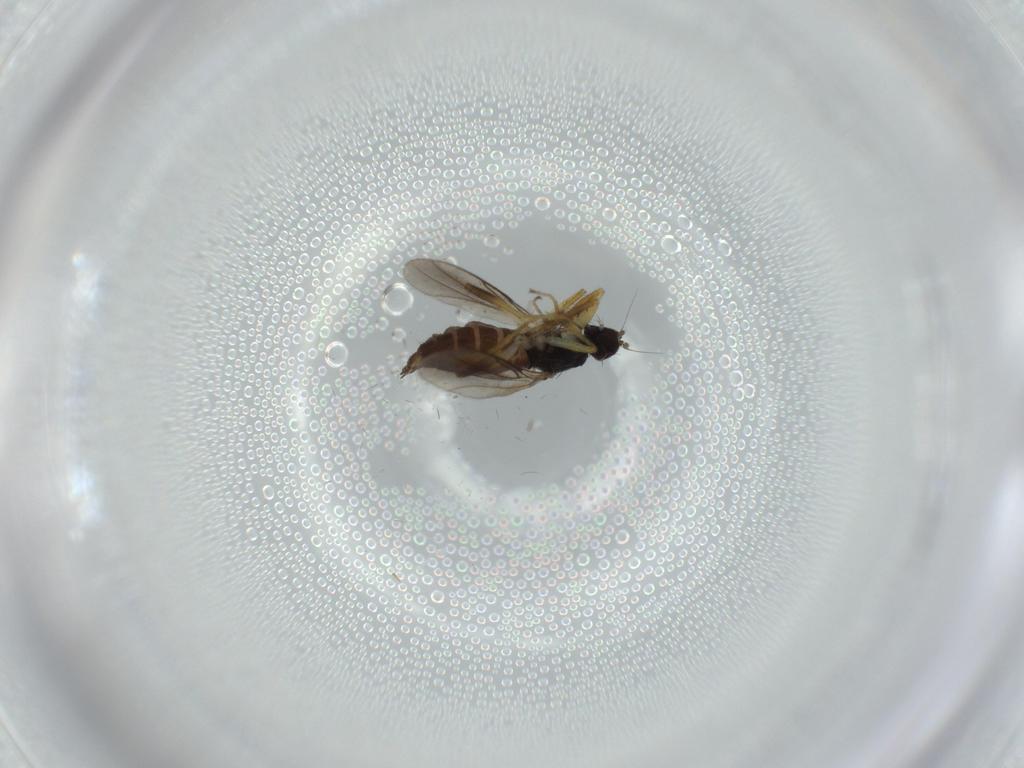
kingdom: Animalia
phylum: Arthropoda
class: Insecta
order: Diptera
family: Hybotidae
